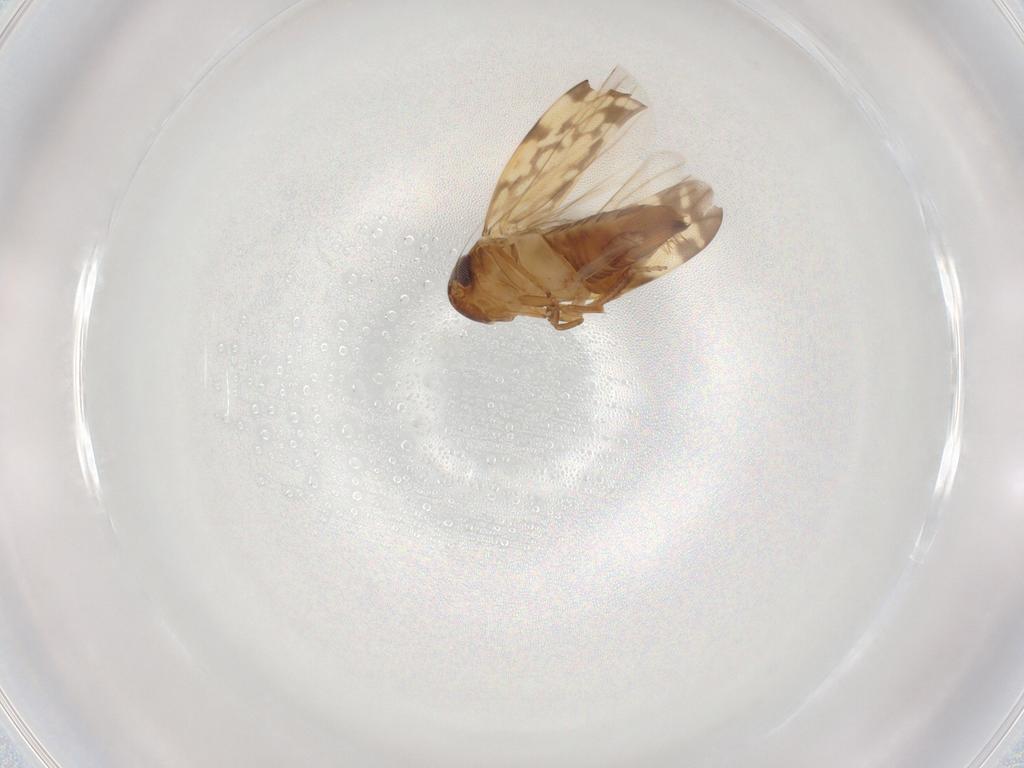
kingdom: Animalia
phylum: Arthropoda
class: Insecta
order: Hemiptera
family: Cicadellidae
